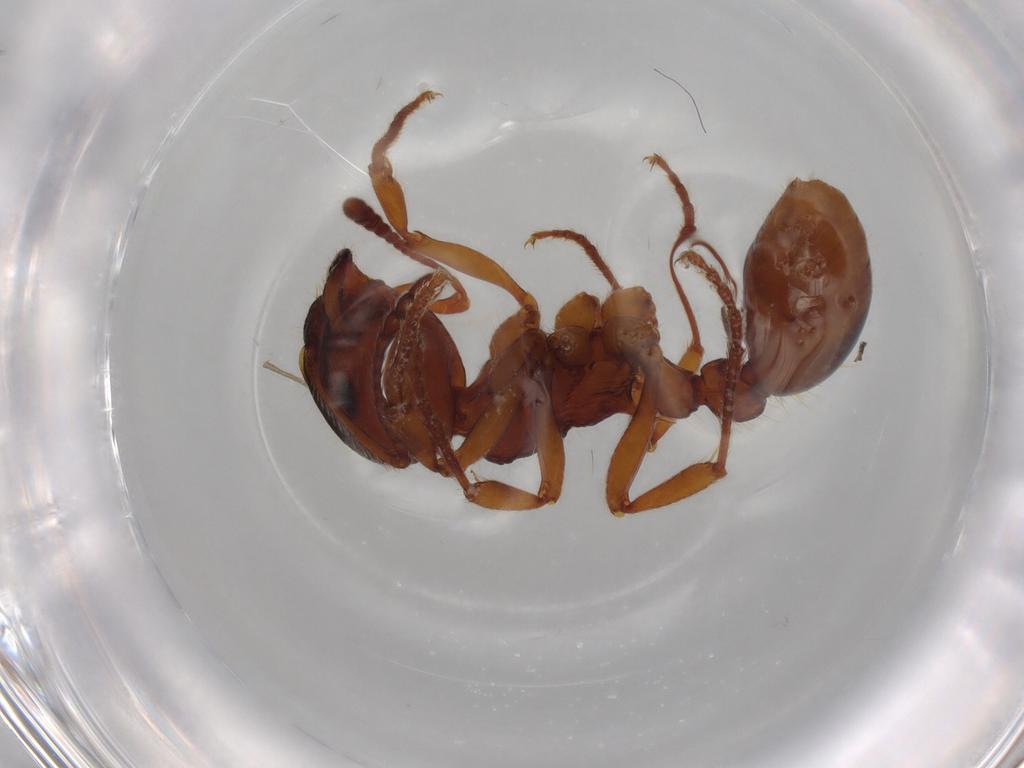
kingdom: Animalia
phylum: Arthropoda
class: Insecta
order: Hymenoptera
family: Formicidae
